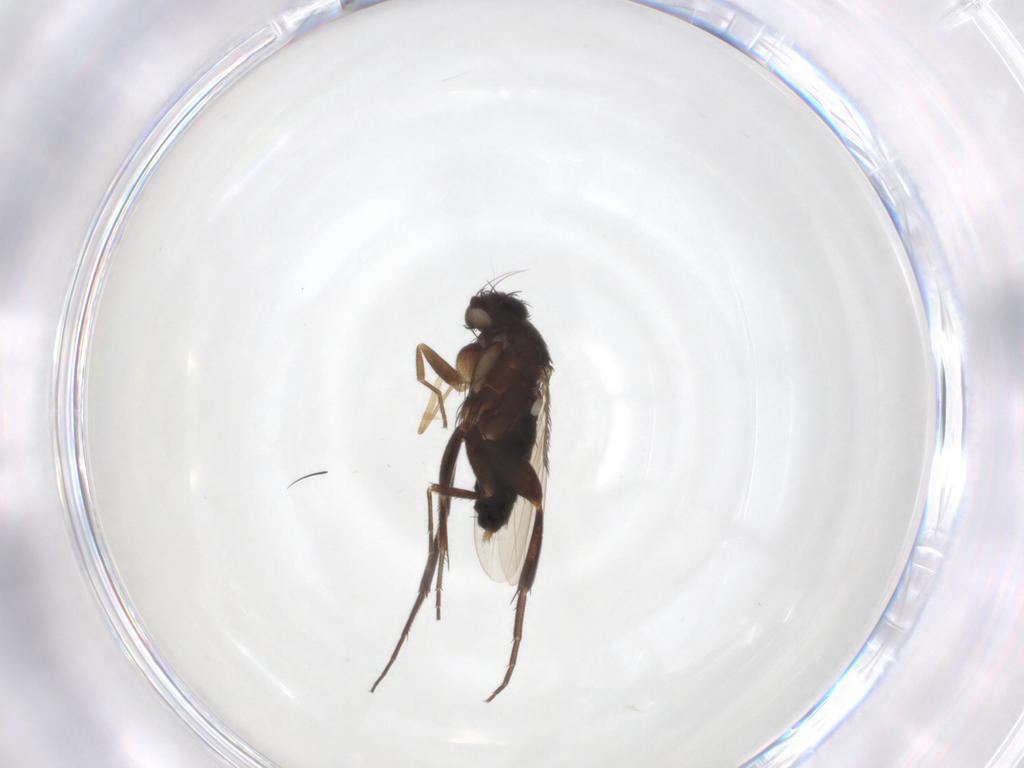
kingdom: Animalia
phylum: Arthropoda
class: Insecta
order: Diptera
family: Phoridae
